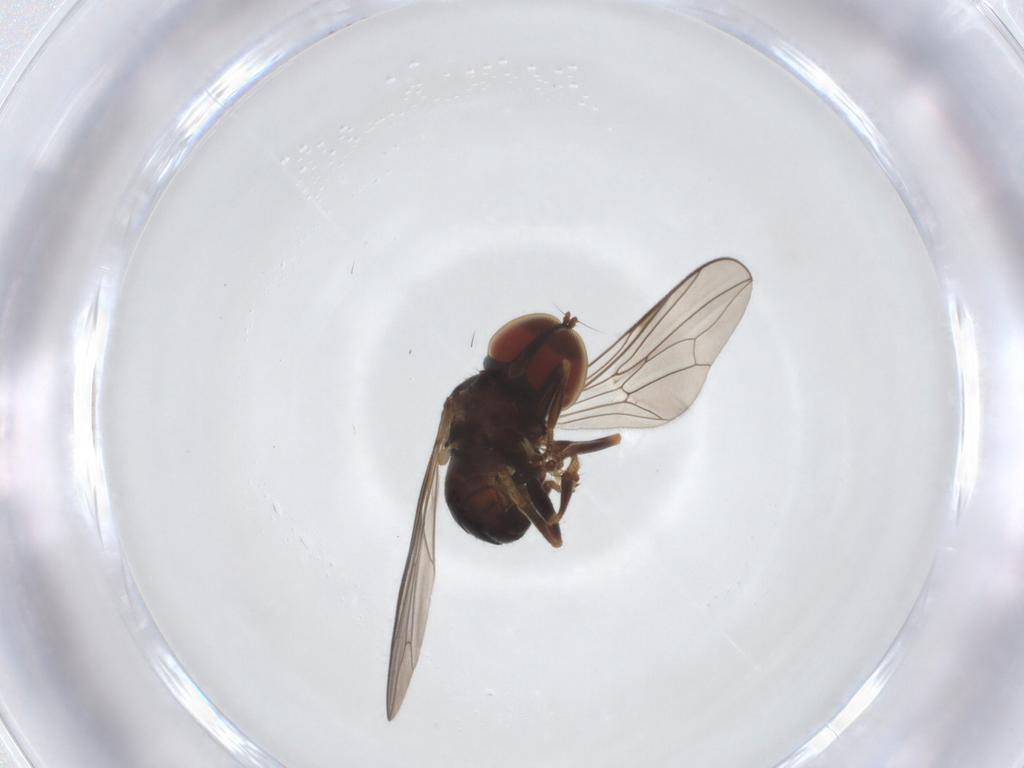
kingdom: Animalia
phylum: Arthropoda
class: Insecta
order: Diptera
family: Pipunculidae
